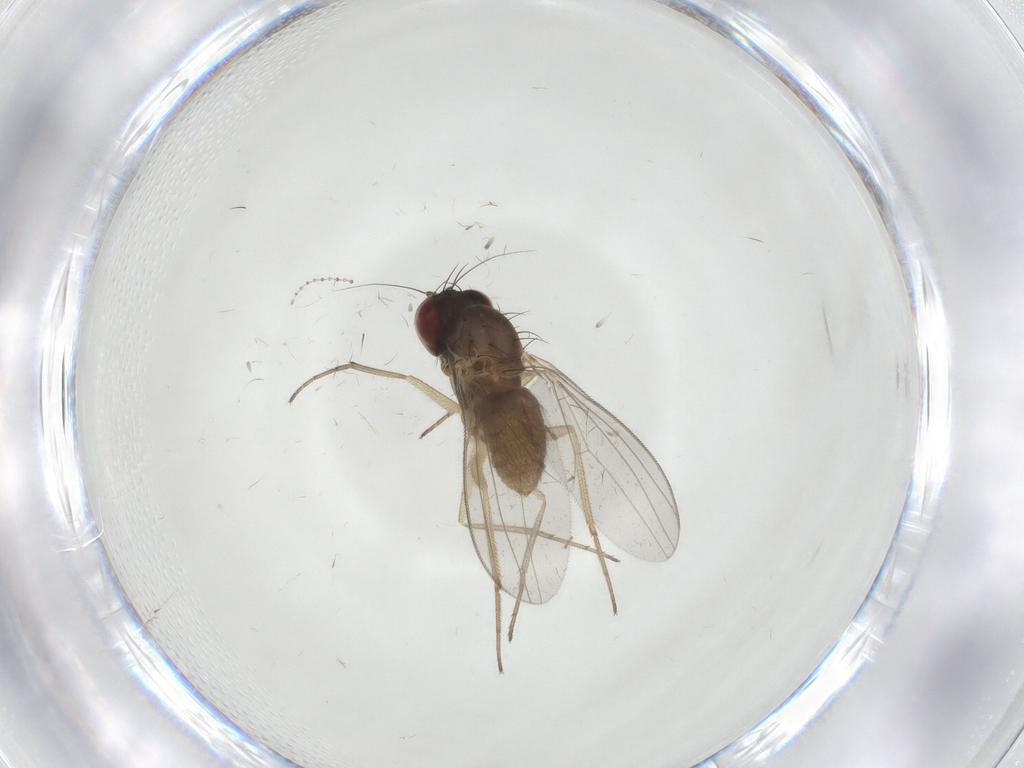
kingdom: Animalia
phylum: Arthropoda
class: Insecta
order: Diptera
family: Dolichopodidae
